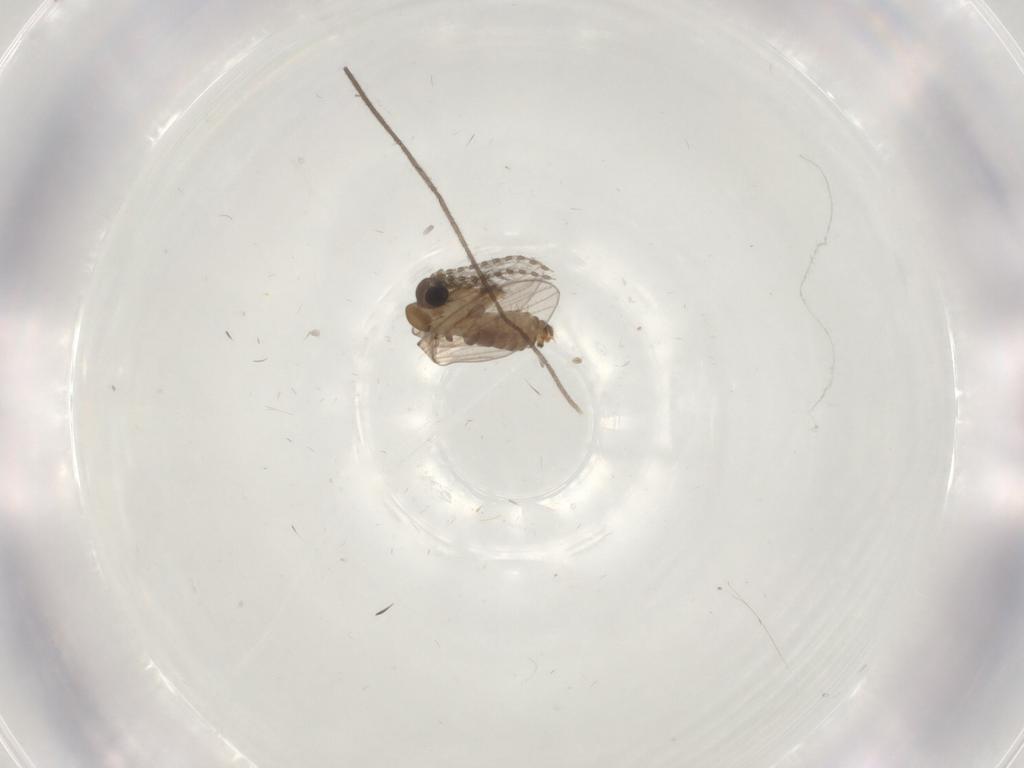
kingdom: Animalia
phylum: Arthropoda
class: Insecta
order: Diptera
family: Chironomidae
